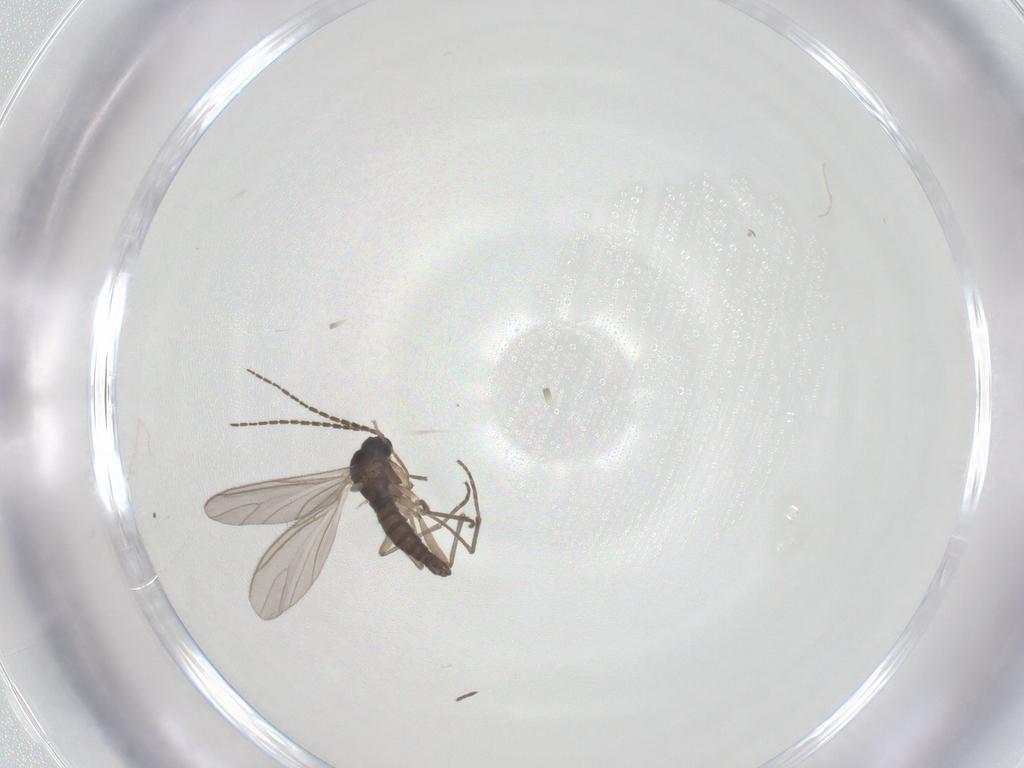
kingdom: Animalia
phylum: Arthropoda
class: Insecta
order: Diptera
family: Sciaridae
